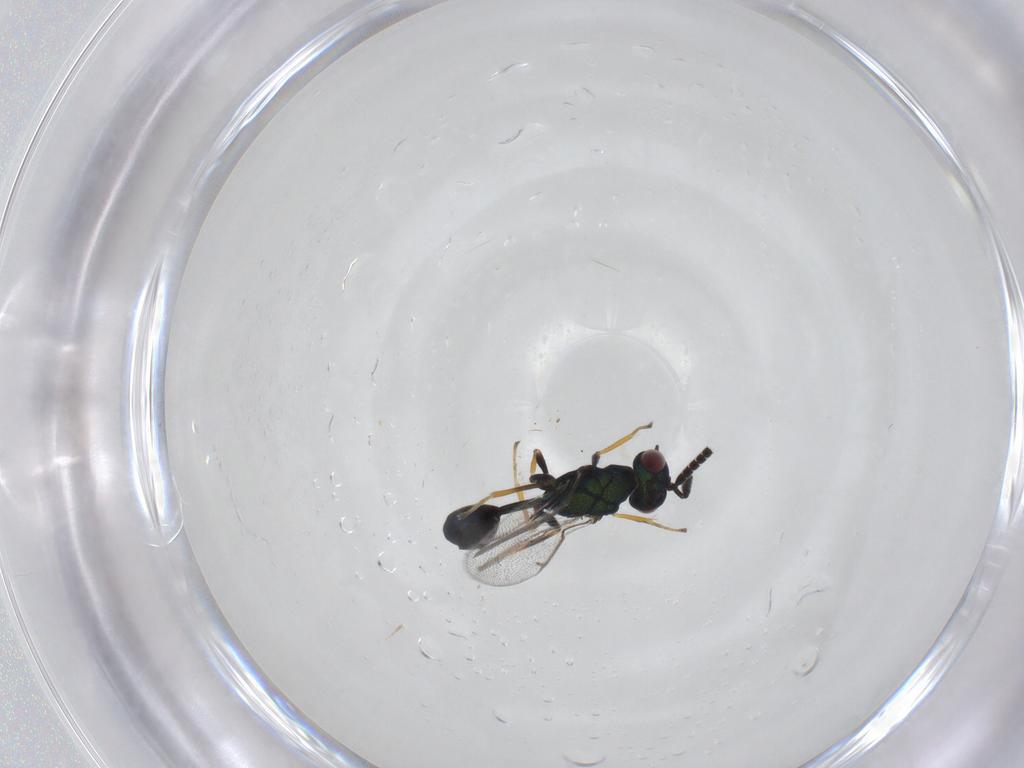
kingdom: Animalia
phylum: Arthropoda
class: Insecta
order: Hymenoptera
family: Eucharitidae
